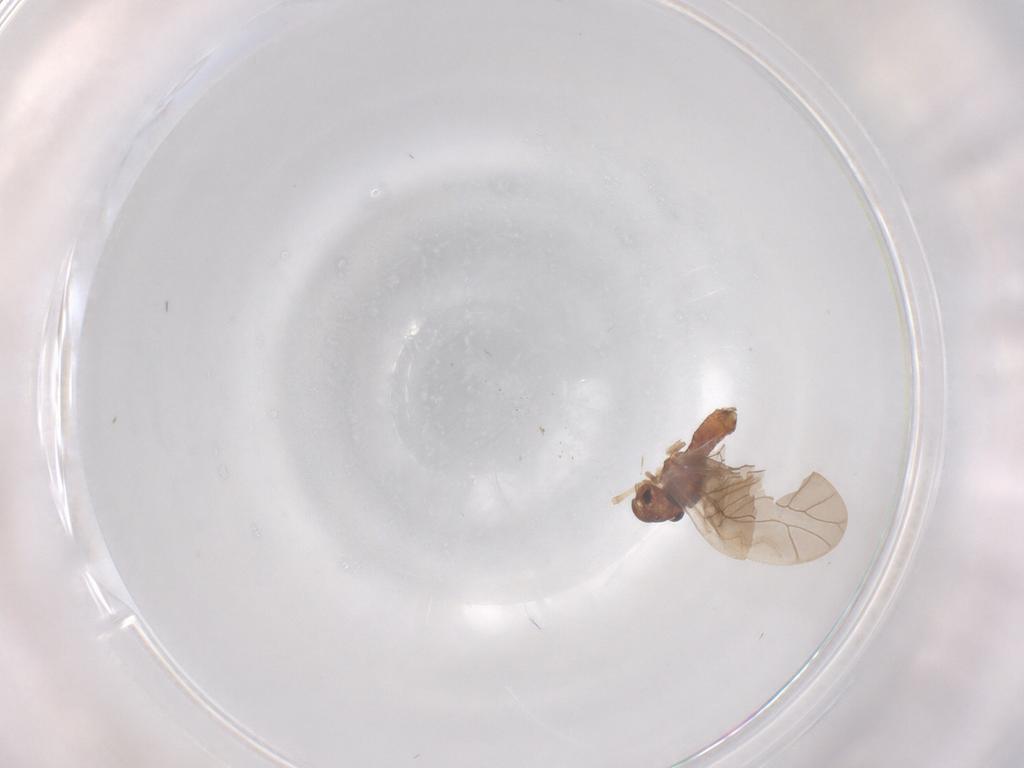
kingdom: Animalia
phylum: Arthropoda
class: Insecta
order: Psocodea
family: Caeciliusidae
